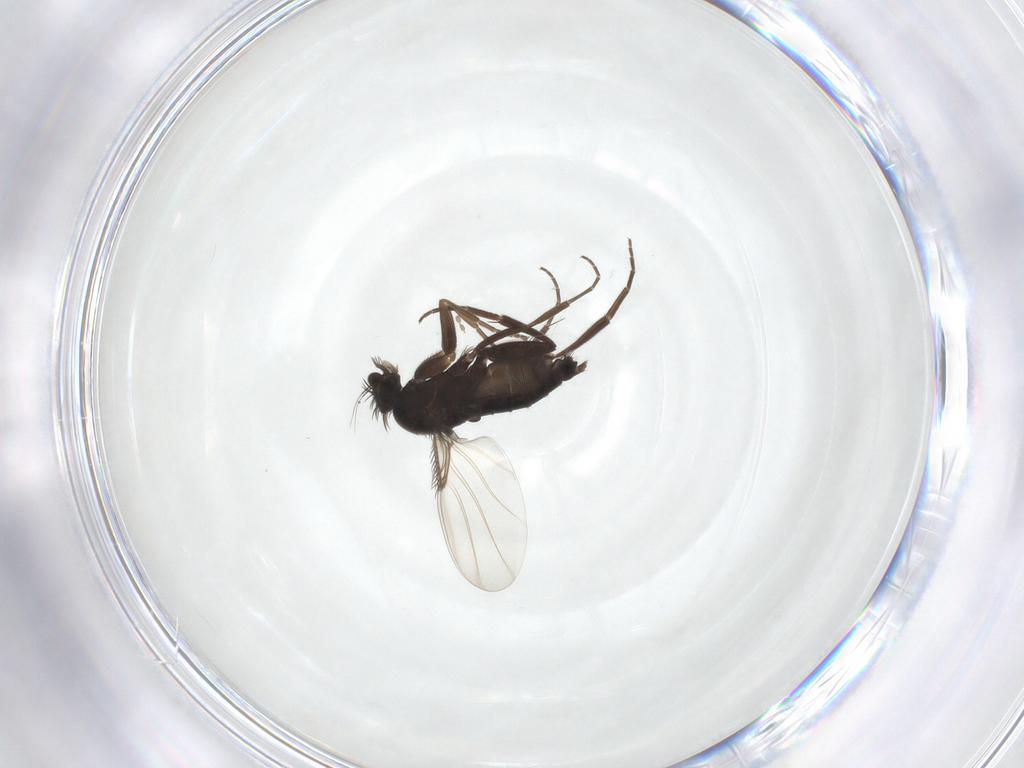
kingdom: Animalia
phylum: Arthropoda
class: Insecta
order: Diptera
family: Cecidomyiidae
